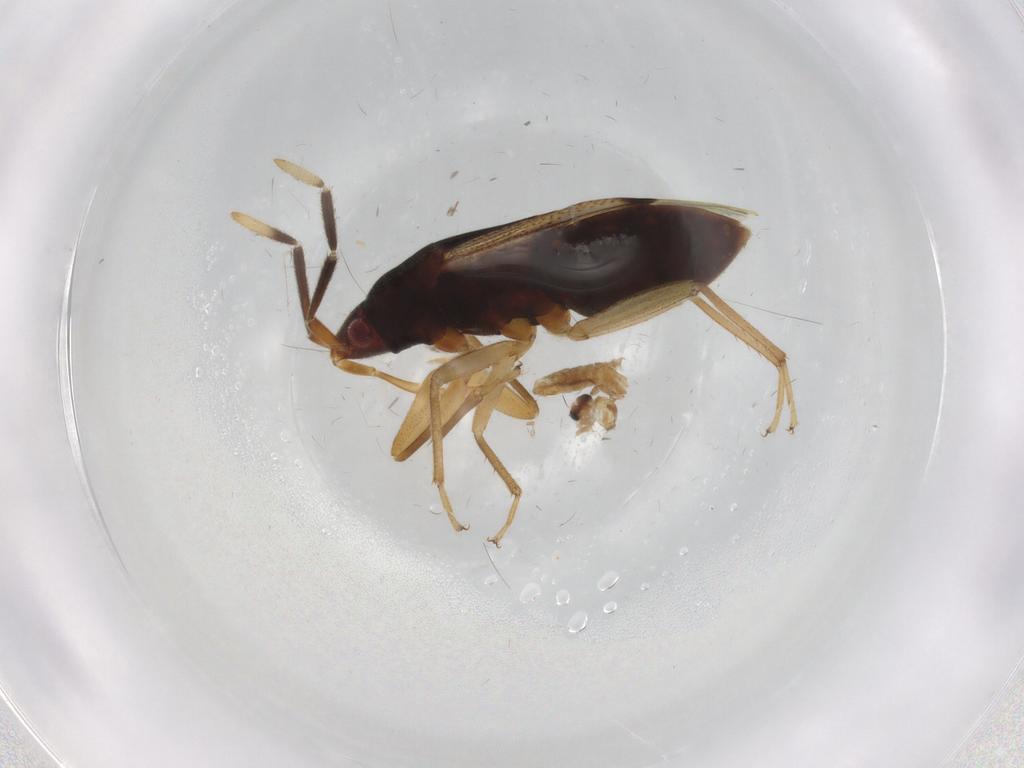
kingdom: Animalia
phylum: Arthropoda
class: Insecta
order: Hemiptera
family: Rhyparochromidae
